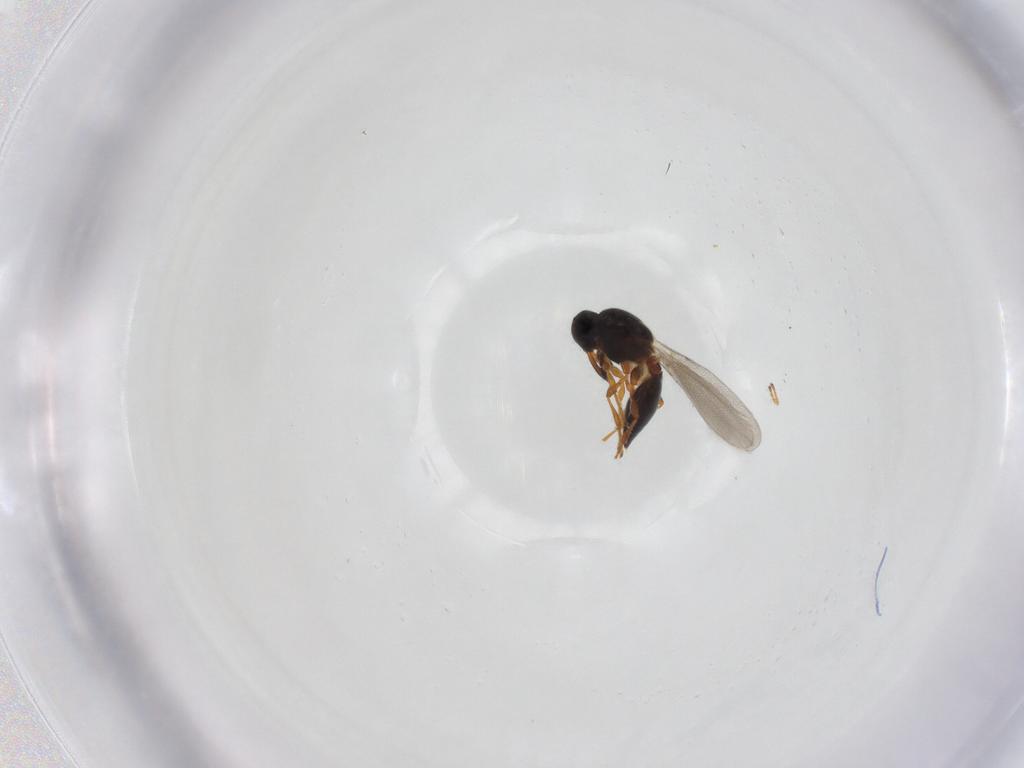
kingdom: Animalia
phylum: Arthropoda
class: Insecta
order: Hymenoptera
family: Platygastridae
